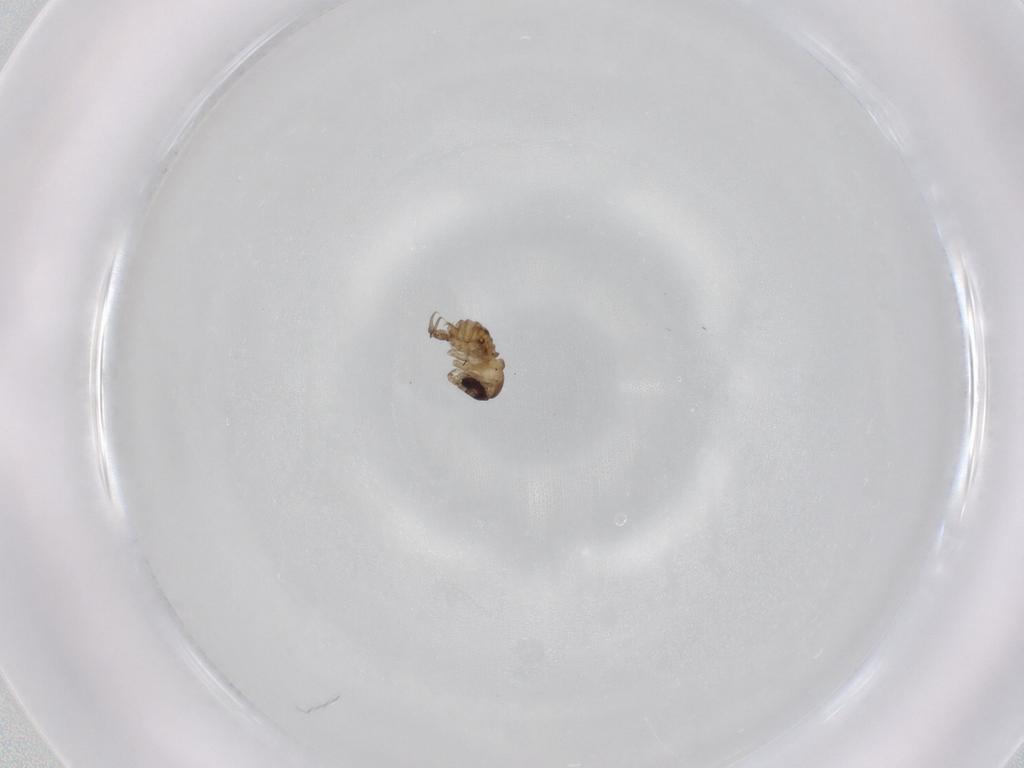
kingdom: Animalia
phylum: Arthropoda
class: Insecta
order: Diptera
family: Psychodidae
